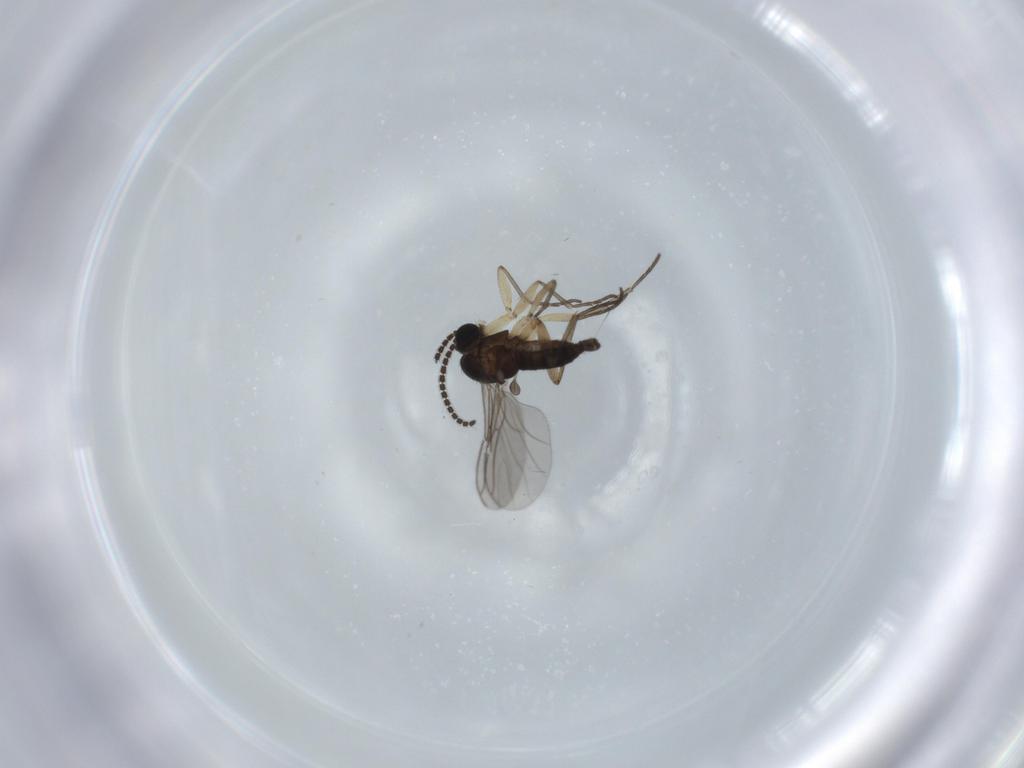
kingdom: Animalia
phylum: Arthropoda
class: Insecta
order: Diptera
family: Sciaridae
